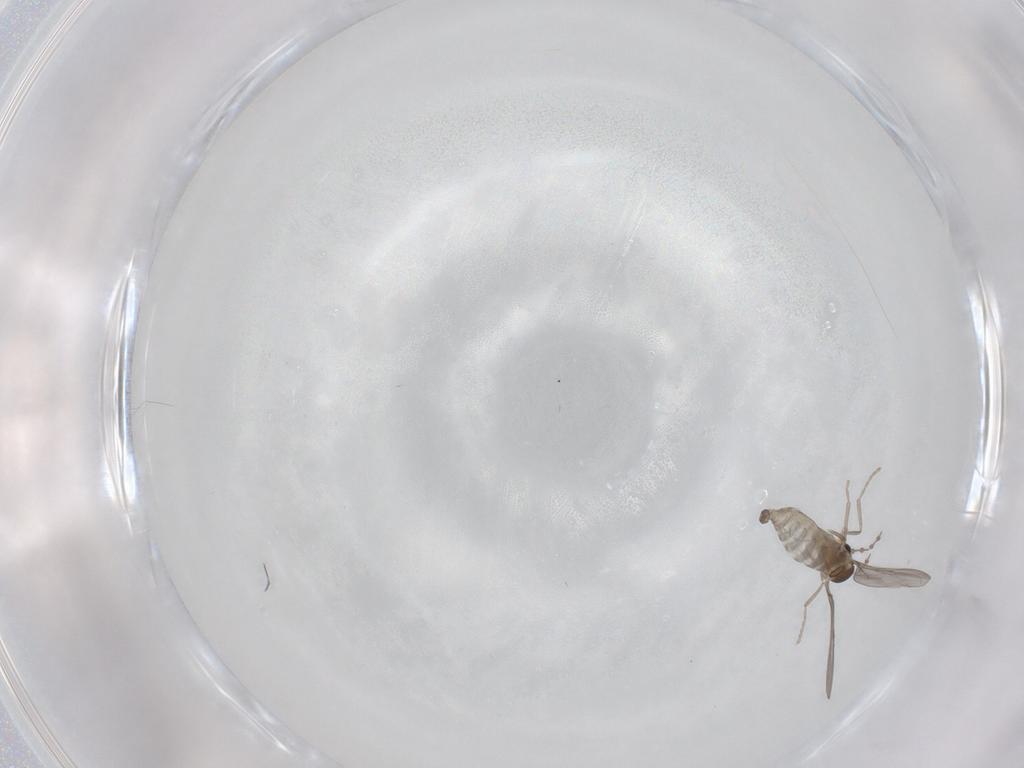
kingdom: Animalia
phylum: Arthropoda
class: Insecta
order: Diptera
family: Cecidomyiidae
